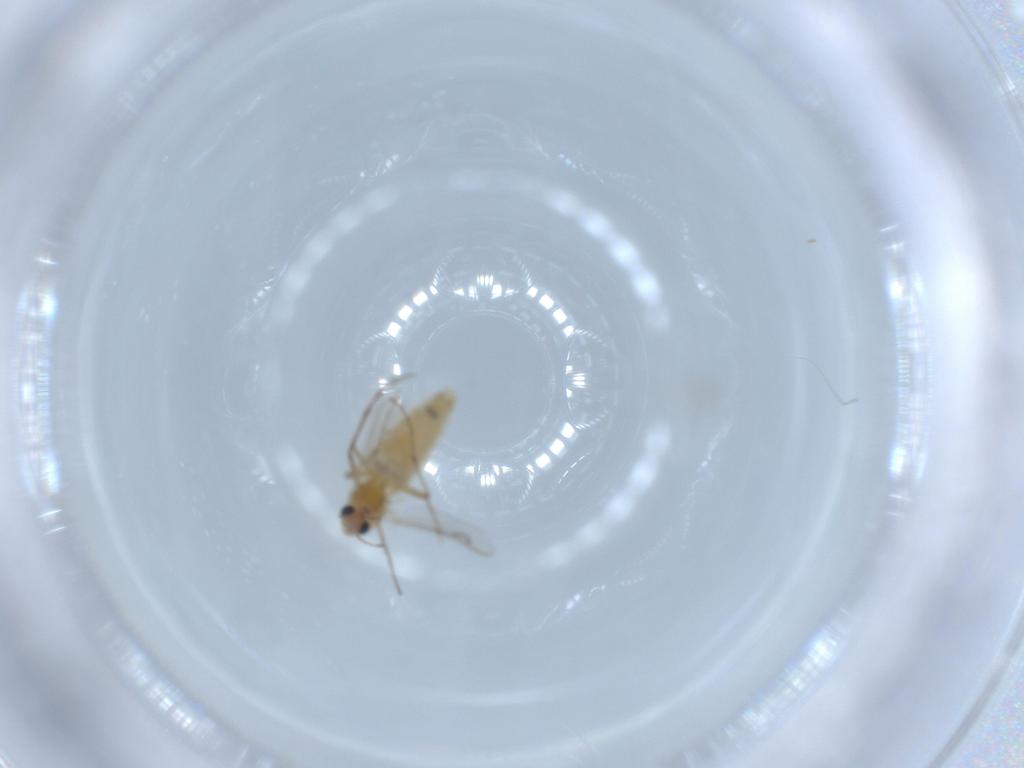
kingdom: Animalia
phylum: Arthropoda
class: Insecta
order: Diptera
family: Chironomidae
